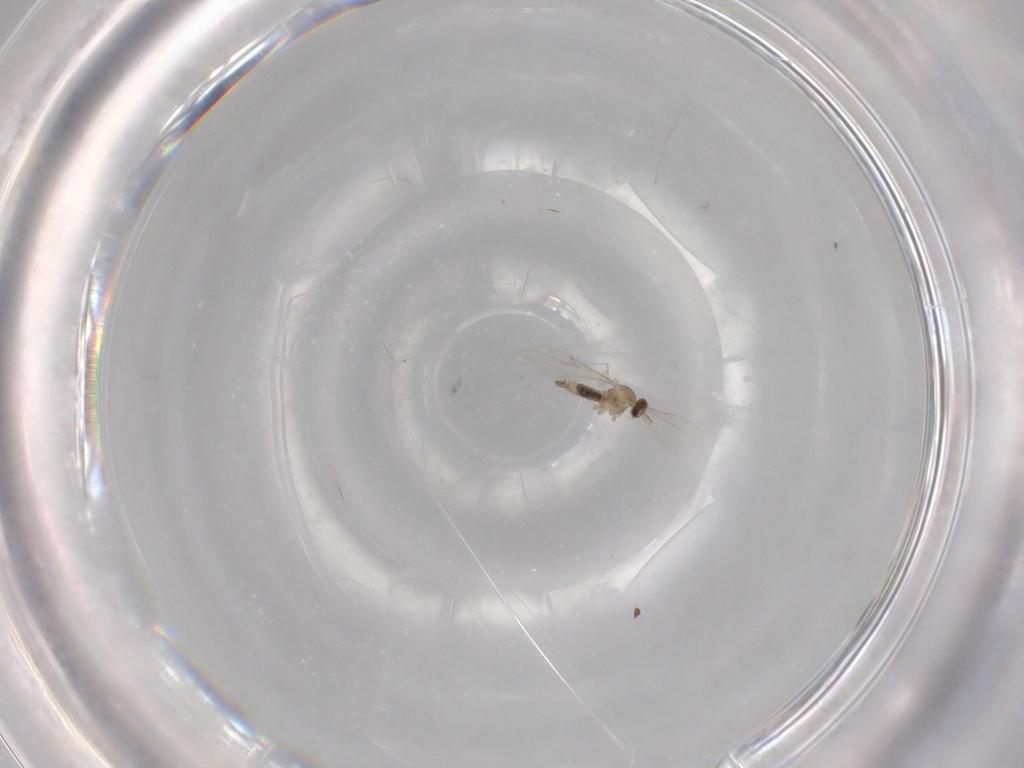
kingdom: Animalia
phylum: Arthropoda
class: Insecta
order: Diptera
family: Cecidomyiidae
